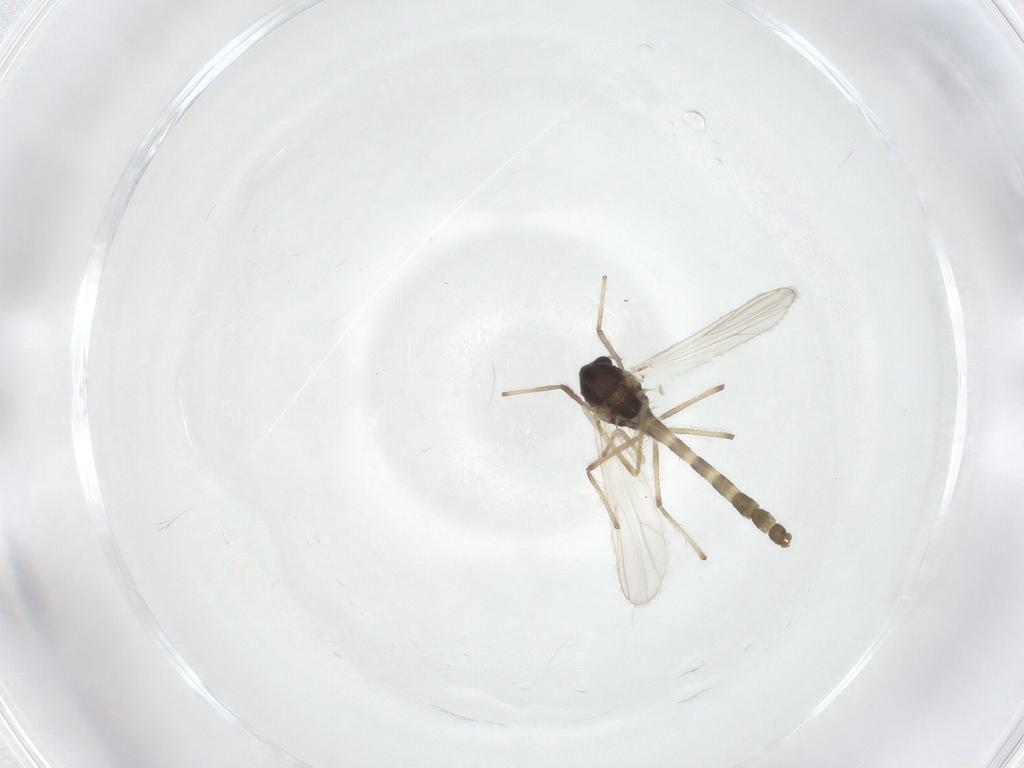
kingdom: Animalia
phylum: Arthropoda
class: Insecta
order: Diptera
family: Chironomidae
